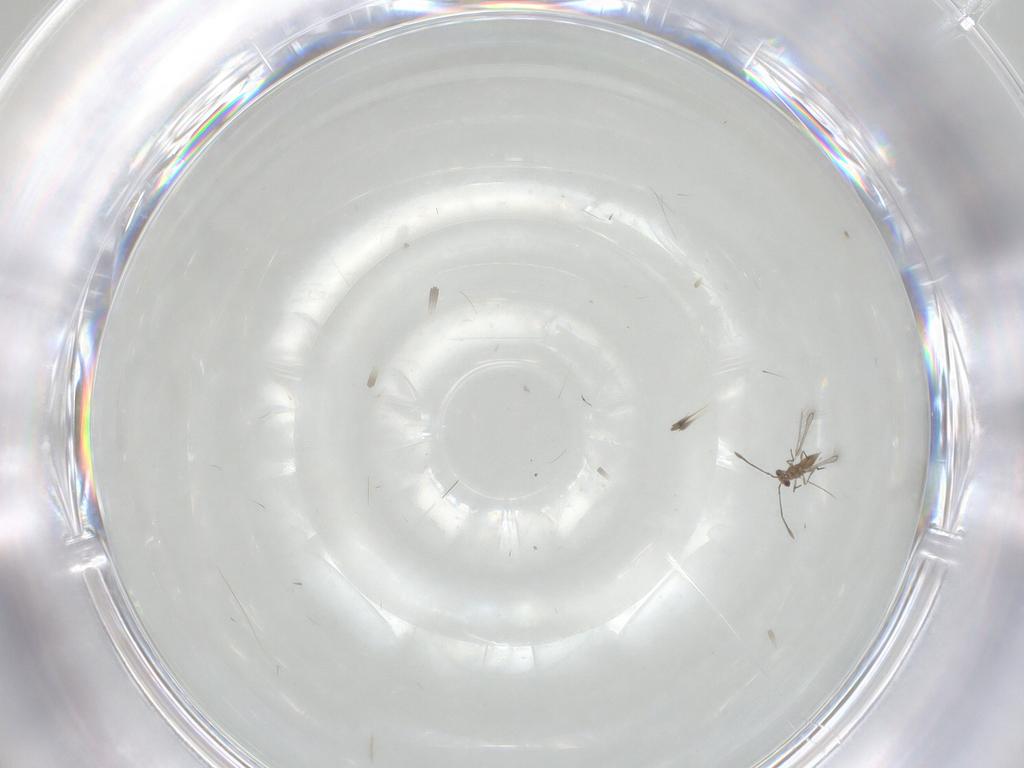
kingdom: Animalia
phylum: Arthropoda
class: Insecta
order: Hymenoptera
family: Mymaridae
